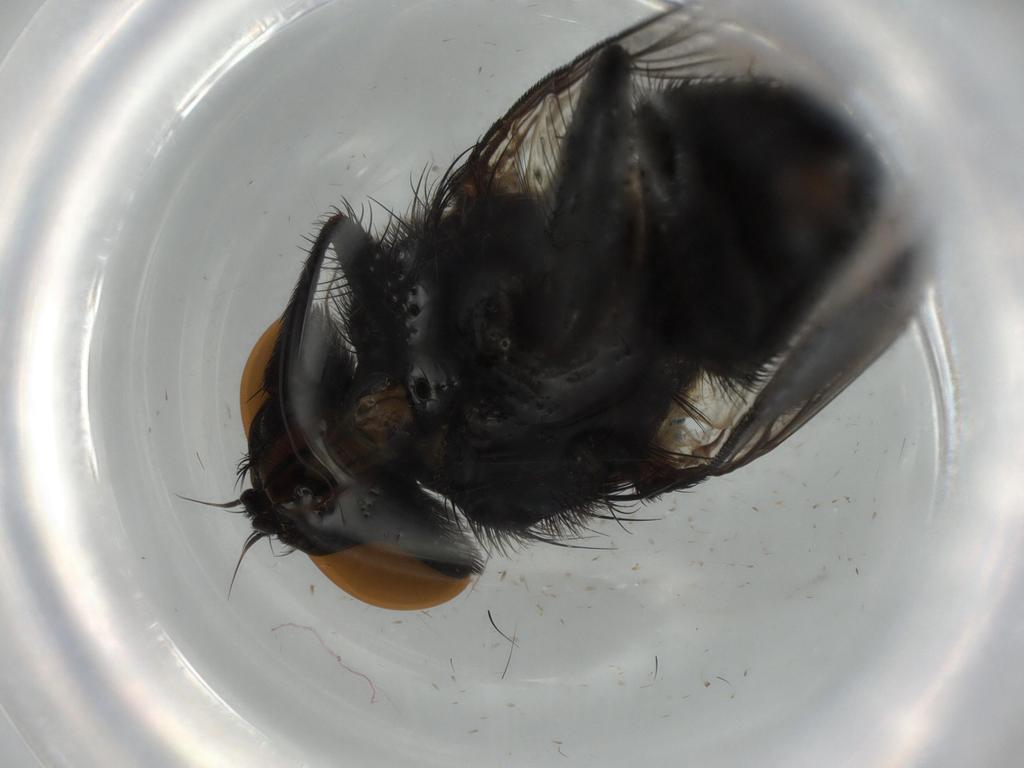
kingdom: Animalia
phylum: Arthropoda
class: Insecta
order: Diptera
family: Sarcophagidae
